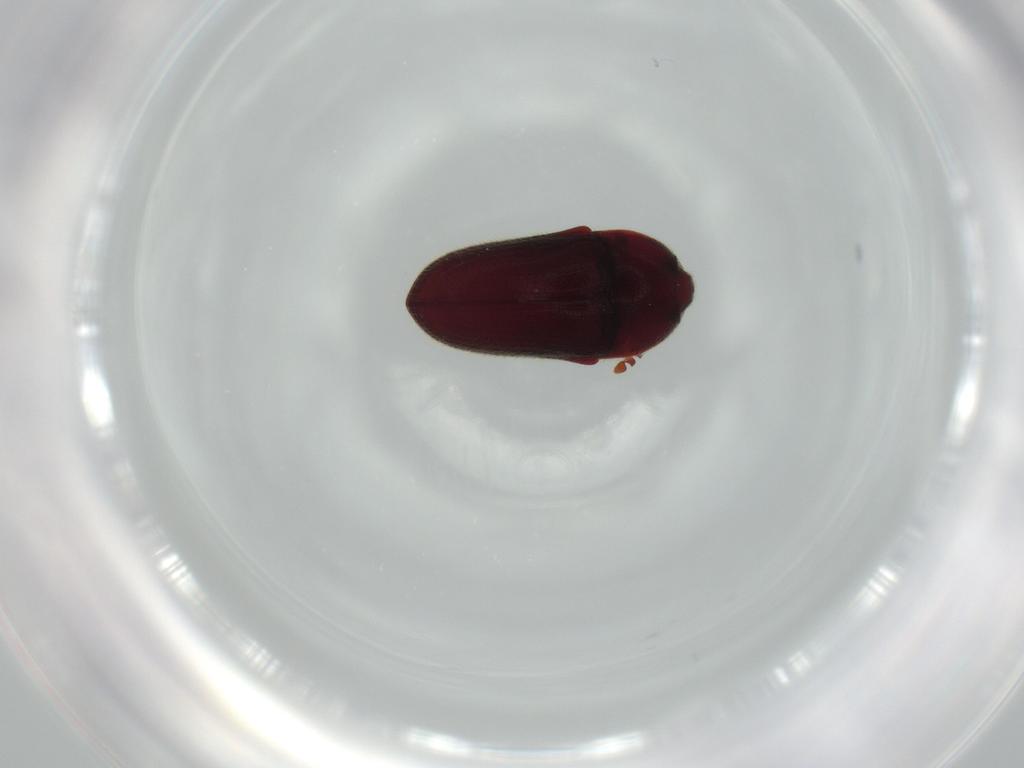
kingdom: Animalia
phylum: Arthropoda
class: Insecta
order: Coleoptera
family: Throscidae
